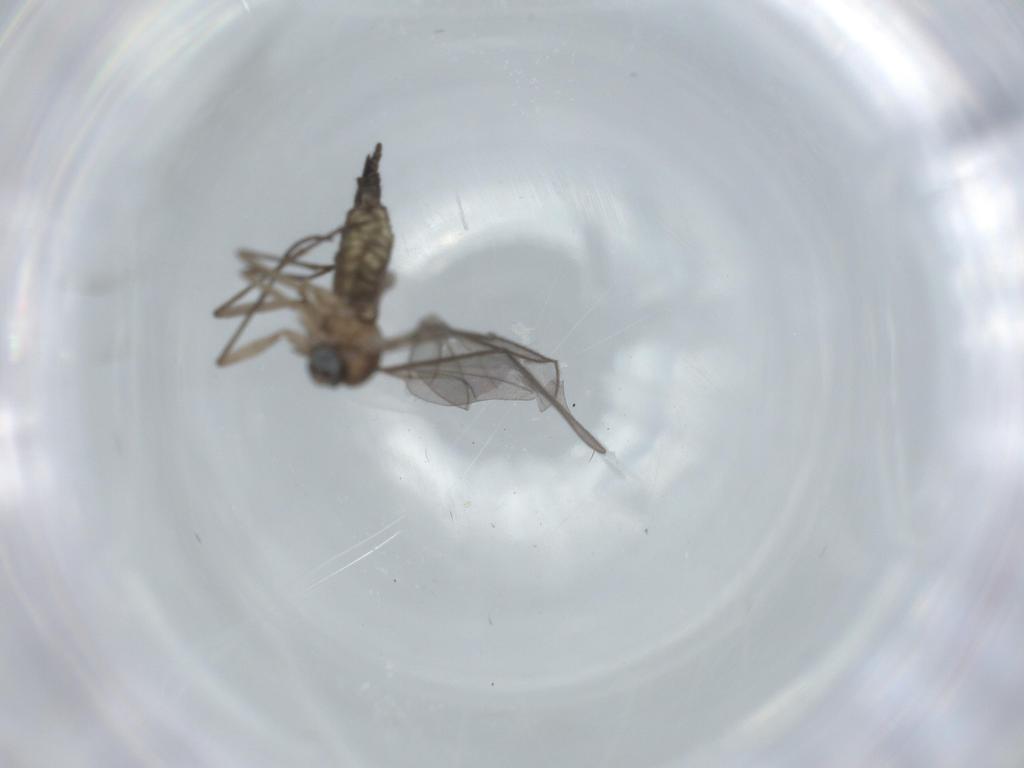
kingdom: Animalia
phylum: Arthropoda
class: Insecta
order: Diptera
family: Sciaridae
